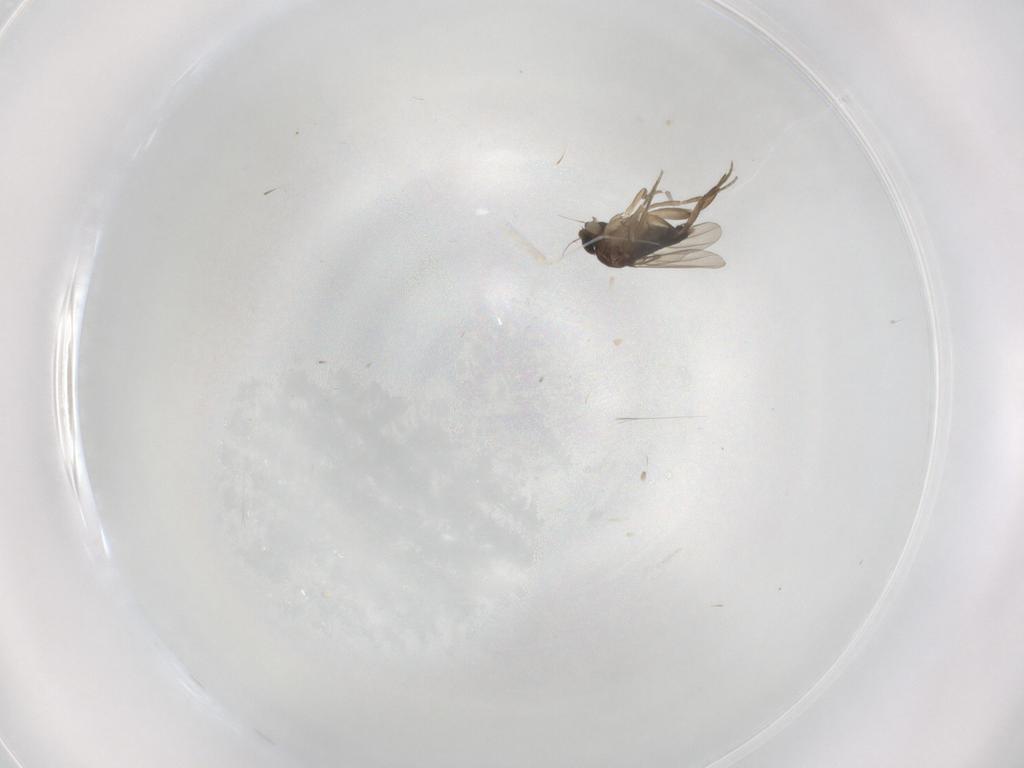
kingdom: Animalia
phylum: Arthropoda
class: Insecta
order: Diptera
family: Phoridae
